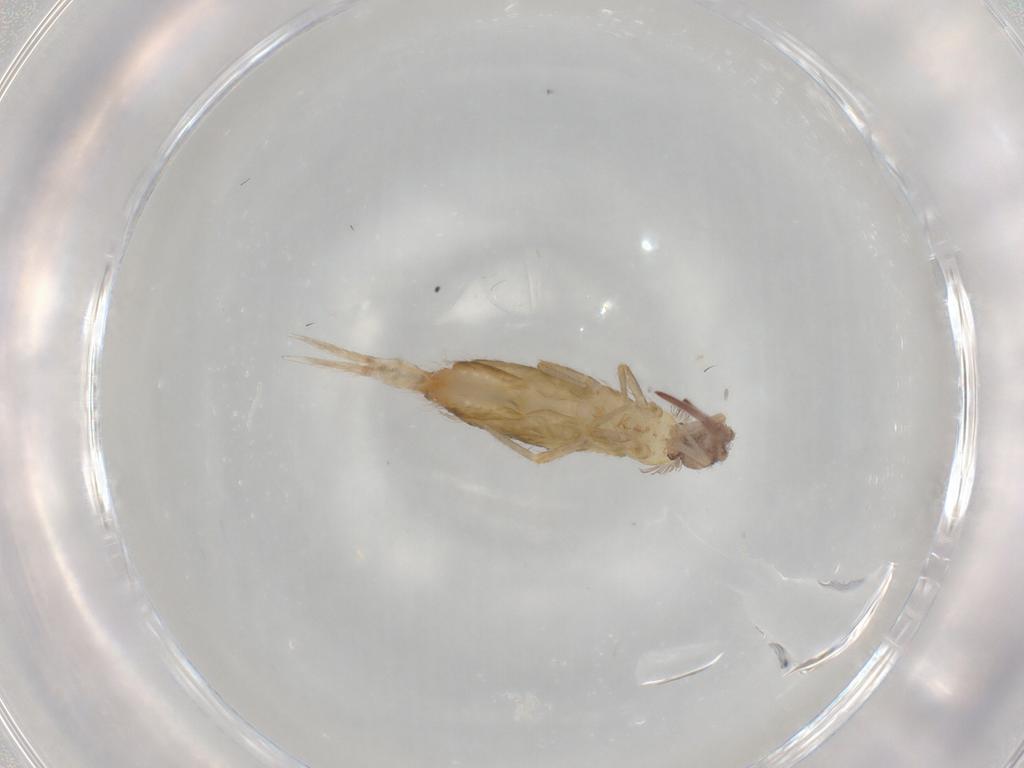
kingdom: Animalia
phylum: Arthropoda
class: Collembola
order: Entomobryomorpha
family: Entomobryidae
